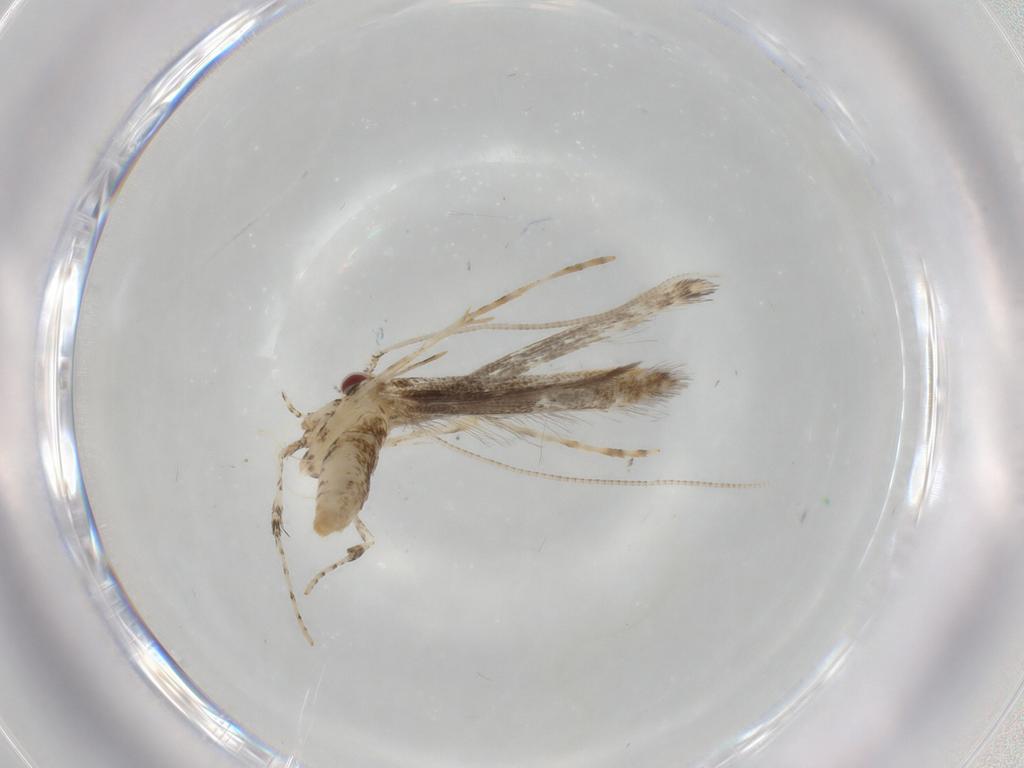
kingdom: Animalia
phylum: Arthropoda
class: Insecta
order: Lepidoptera
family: Gracillariidae
